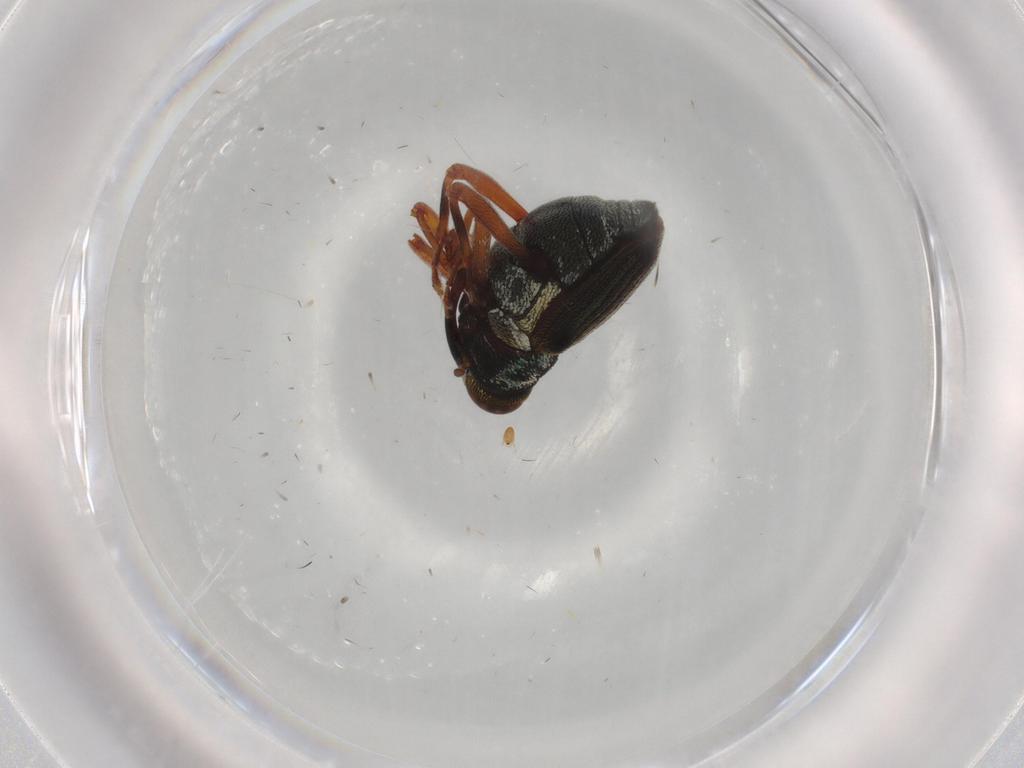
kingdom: Animalia
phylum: Arthropoda
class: Insecta
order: Coleoptera
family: Curculionidae
